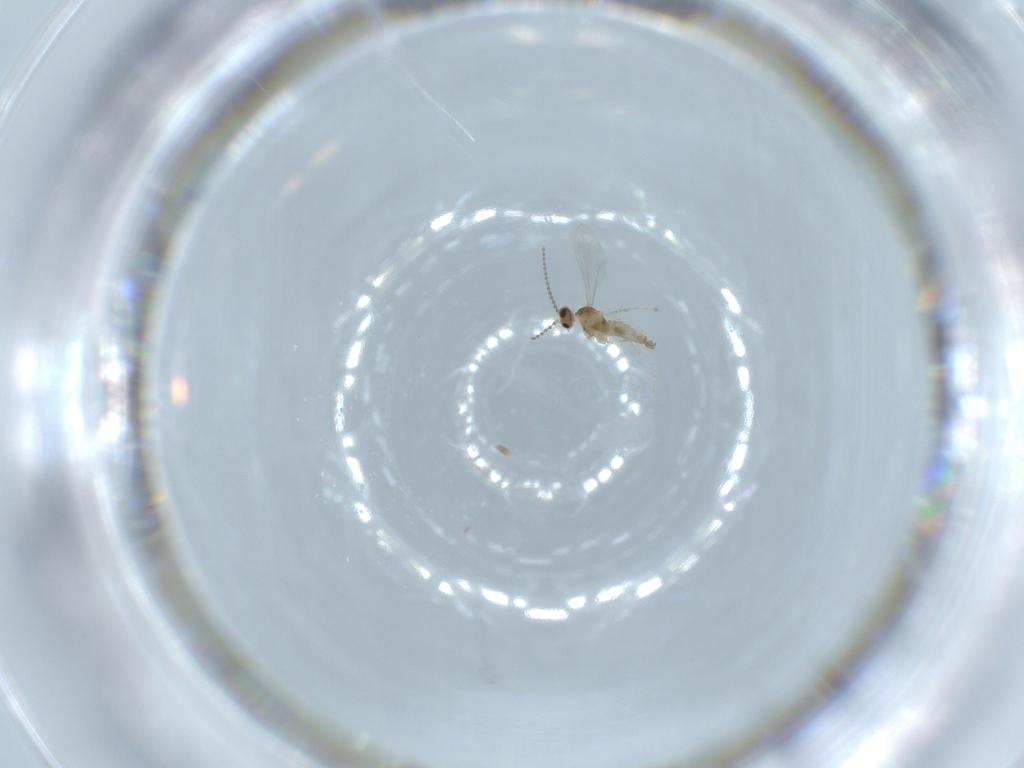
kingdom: Animalia
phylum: Arthropoda
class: Insecta
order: Diptera
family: Cecidomyiidae
